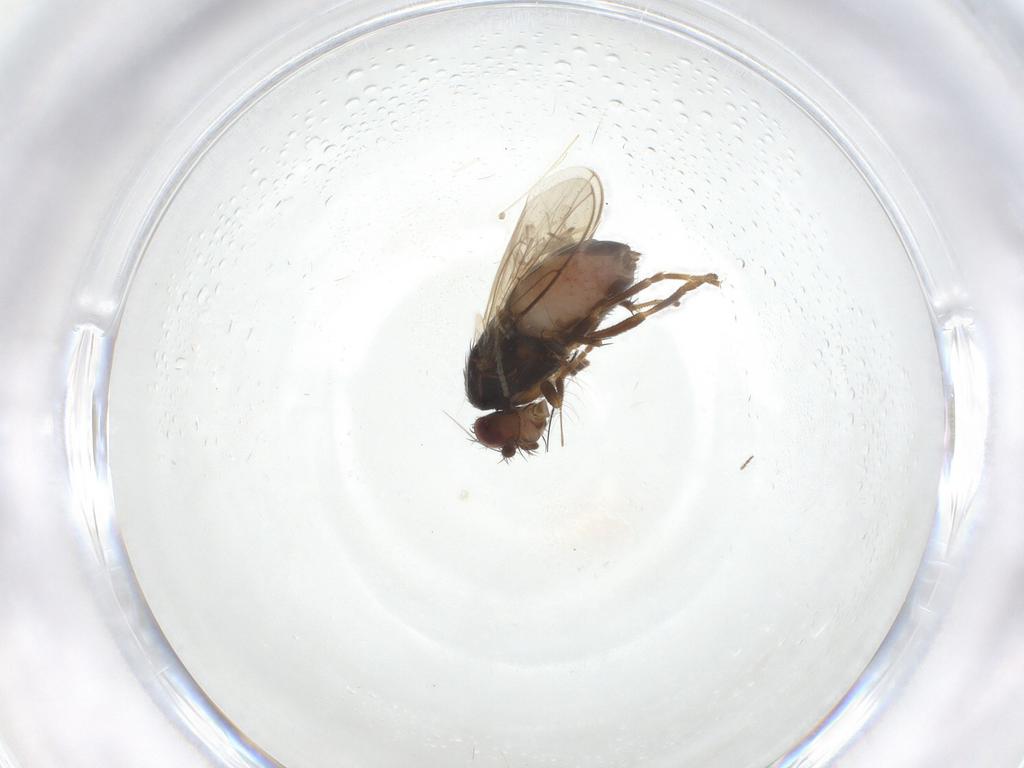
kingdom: Animalia
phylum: Arthropoda
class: Insecta
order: Diptera
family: Sphaeroceridae
